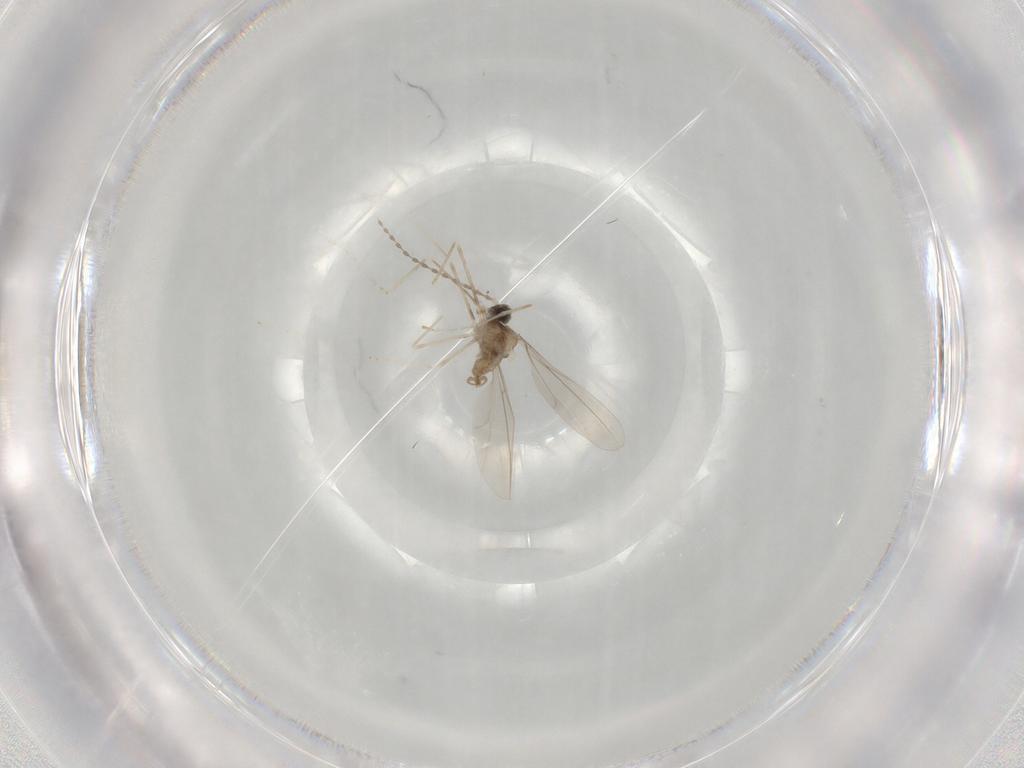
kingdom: Animalia
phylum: Arthropoda
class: Insecta
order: Diptera
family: Cecidomyiidae
